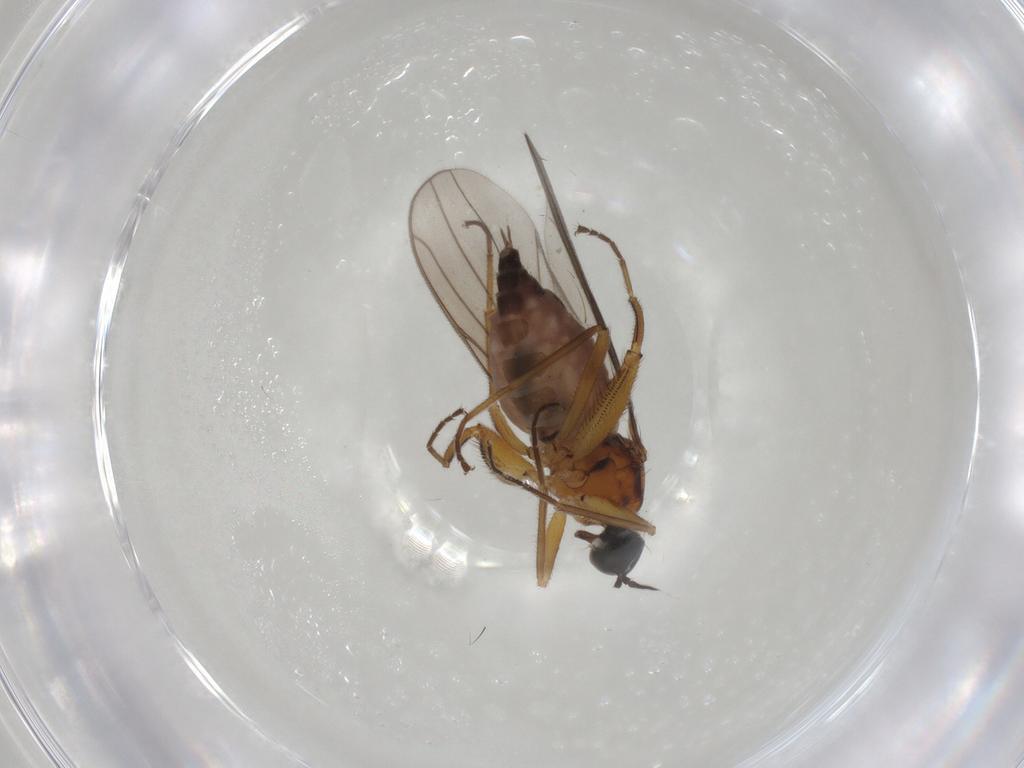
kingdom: Animalia
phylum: Arthropoda
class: Insecta
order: Diptera
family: Hybotidae
